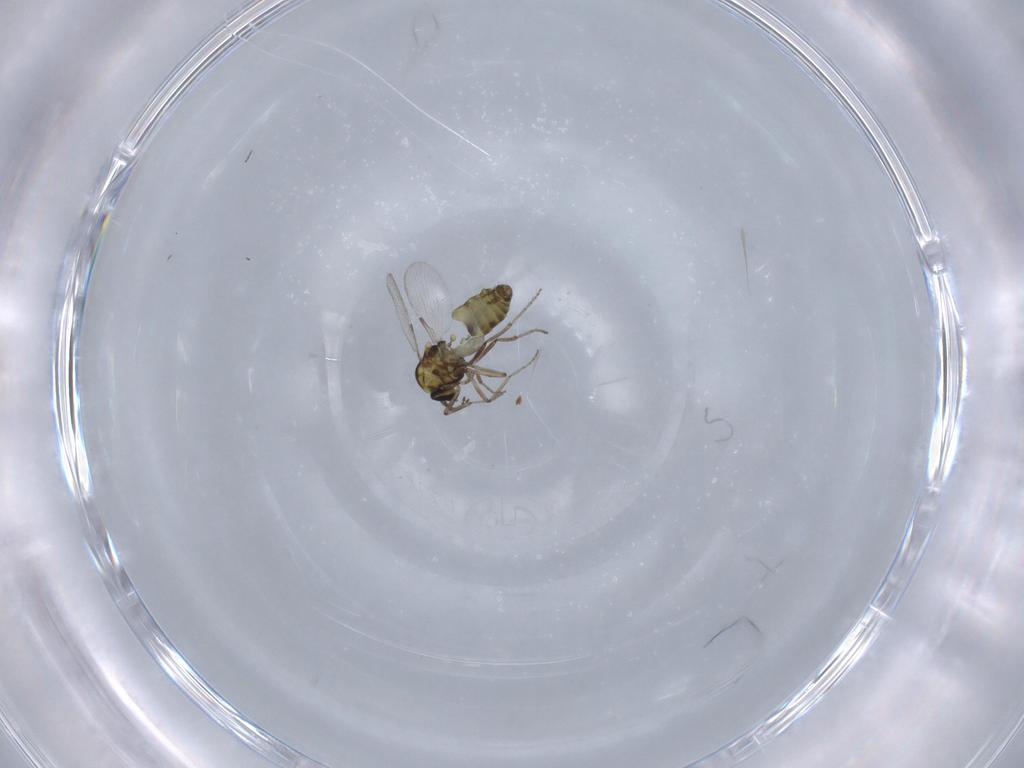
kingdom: Animalia
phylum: Arthropoda
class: Insecta
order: Diptera
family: Ceratopogonidae
